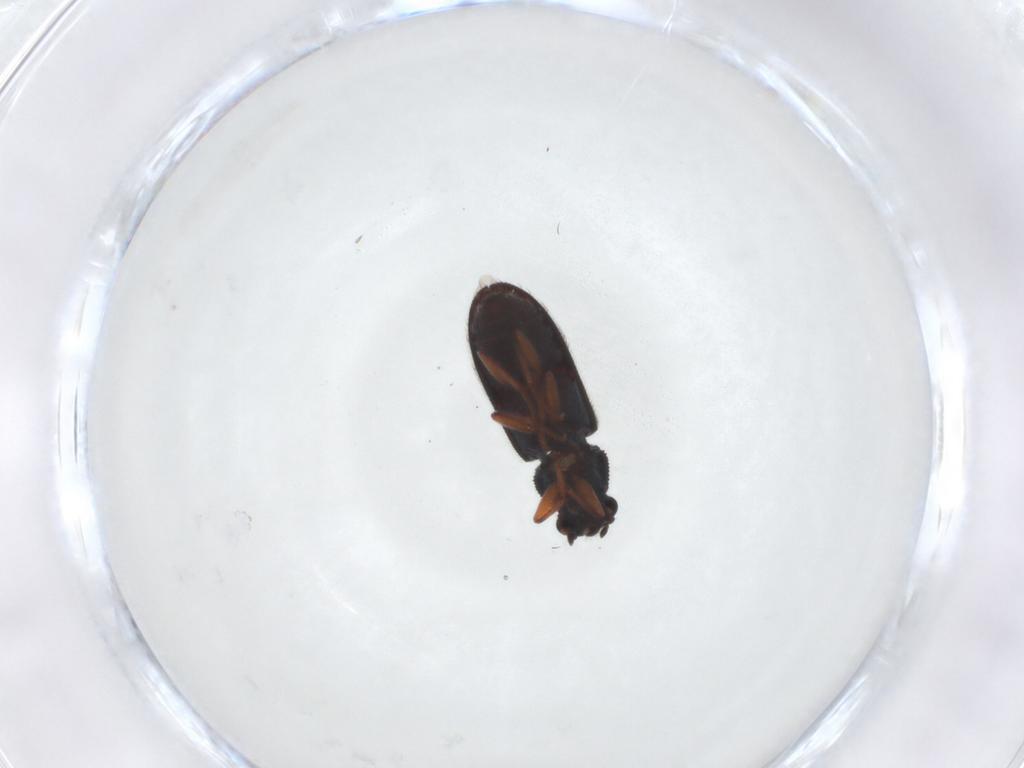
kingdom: Animalia
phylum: Arthropoda
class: Insecta
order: Coleoptera
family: Melyridae
